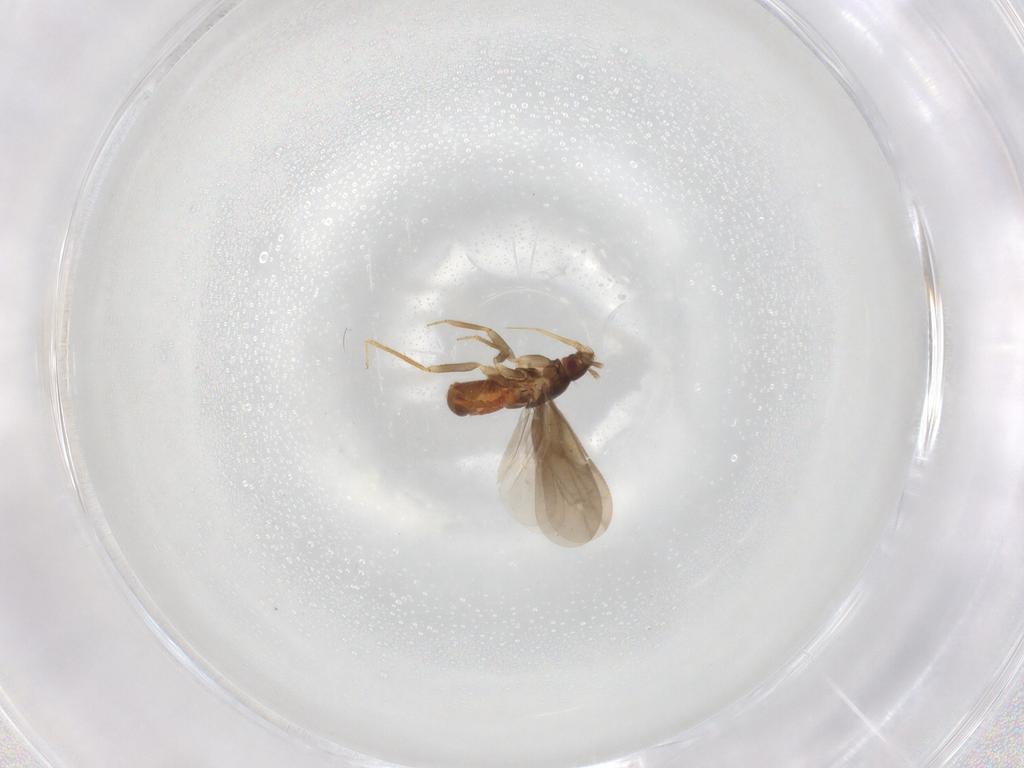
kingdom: Animalia
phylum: Arthropoda
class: Insecta
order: Hemiptera
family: Ceratocombidae
